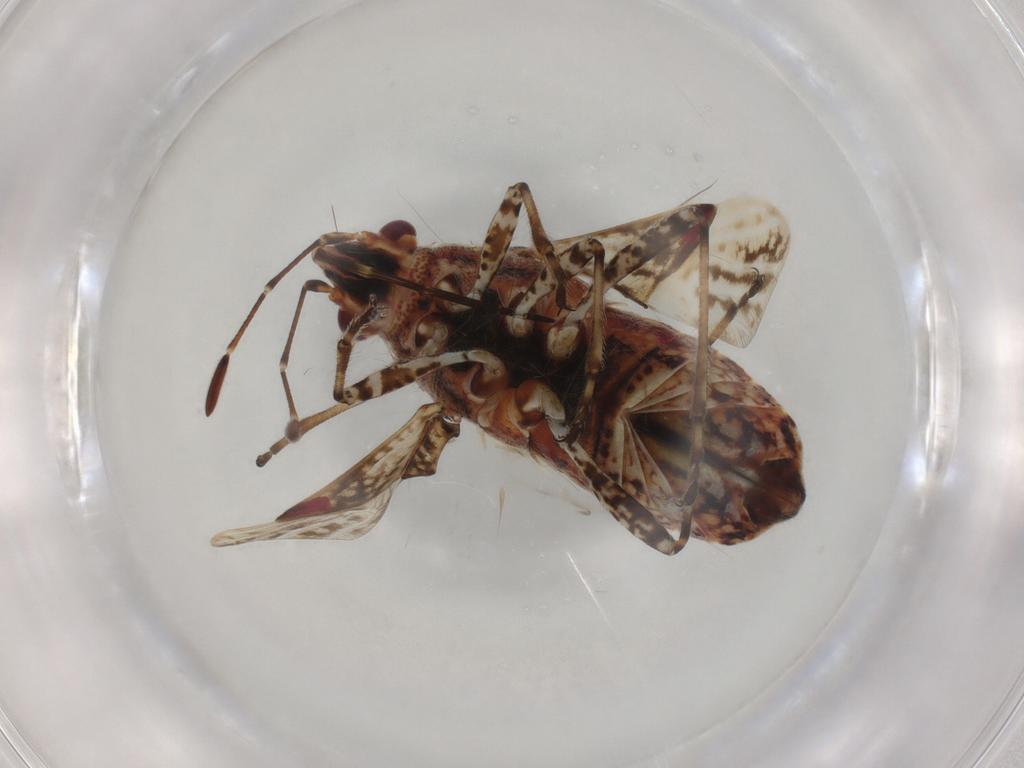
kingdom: Animalia
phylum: Arthropoda
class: Insecta
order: Hemiptera
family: Lygaeidae
